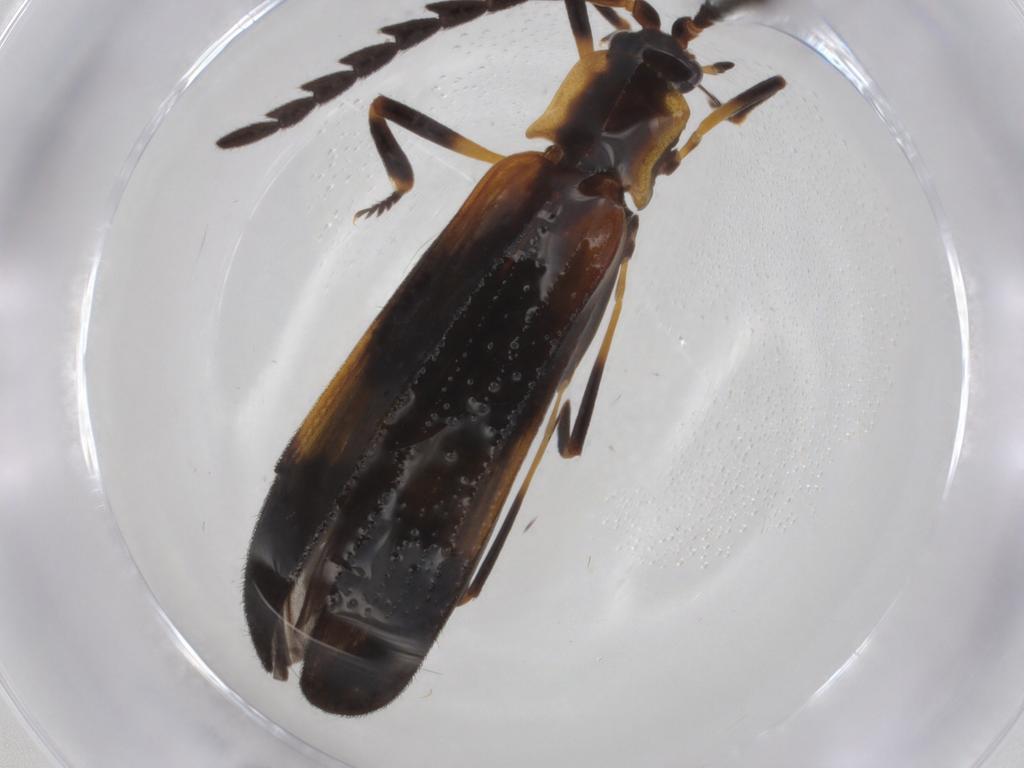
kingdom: Animalia
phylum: Arthropoda
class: Insecta
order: Coleoptera
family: Lycidae
